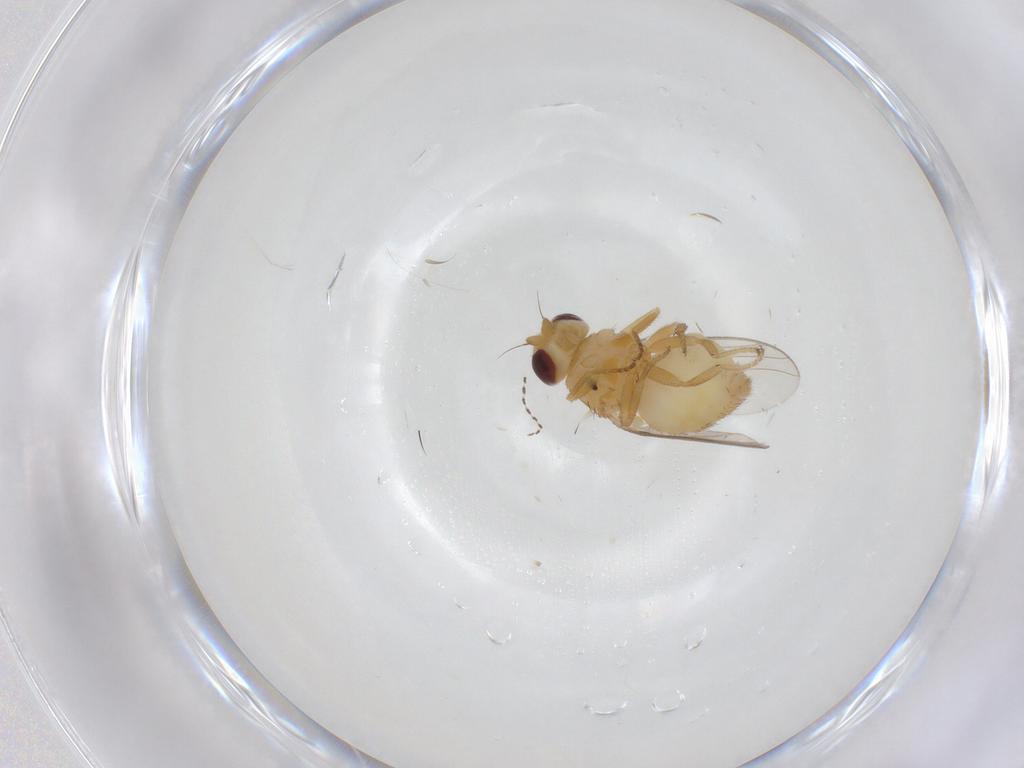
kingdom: Animalia
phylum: Arthropoda
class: Insecta
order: Diptera
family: Chloropidae
